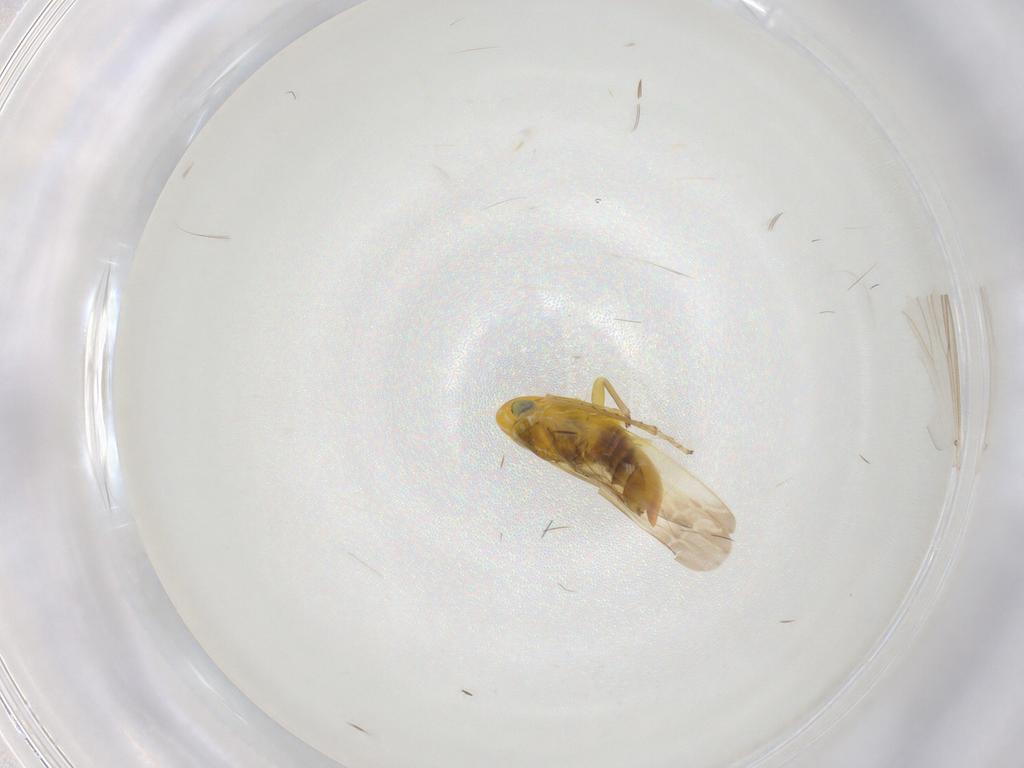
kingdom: Animalia
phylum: Arthropoda
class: Insecta
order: Hemiptera
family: Cicadellidae
